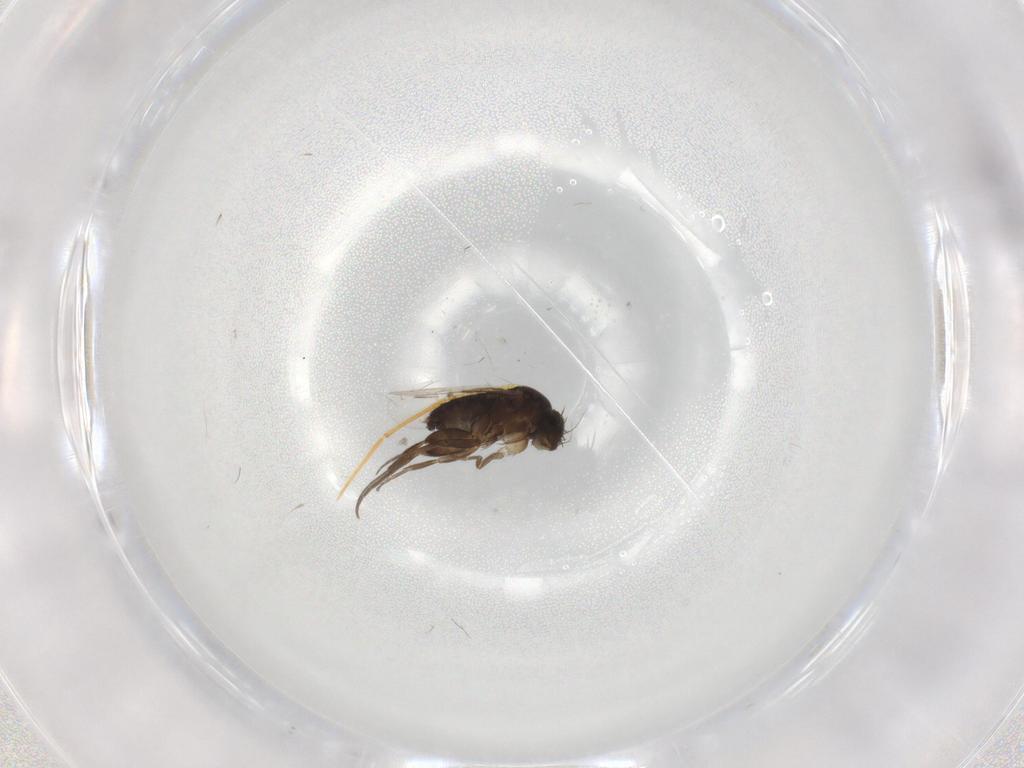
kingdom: Animalia
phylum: Arthropoda
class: Insecta
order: Diptera
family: Phoridae
